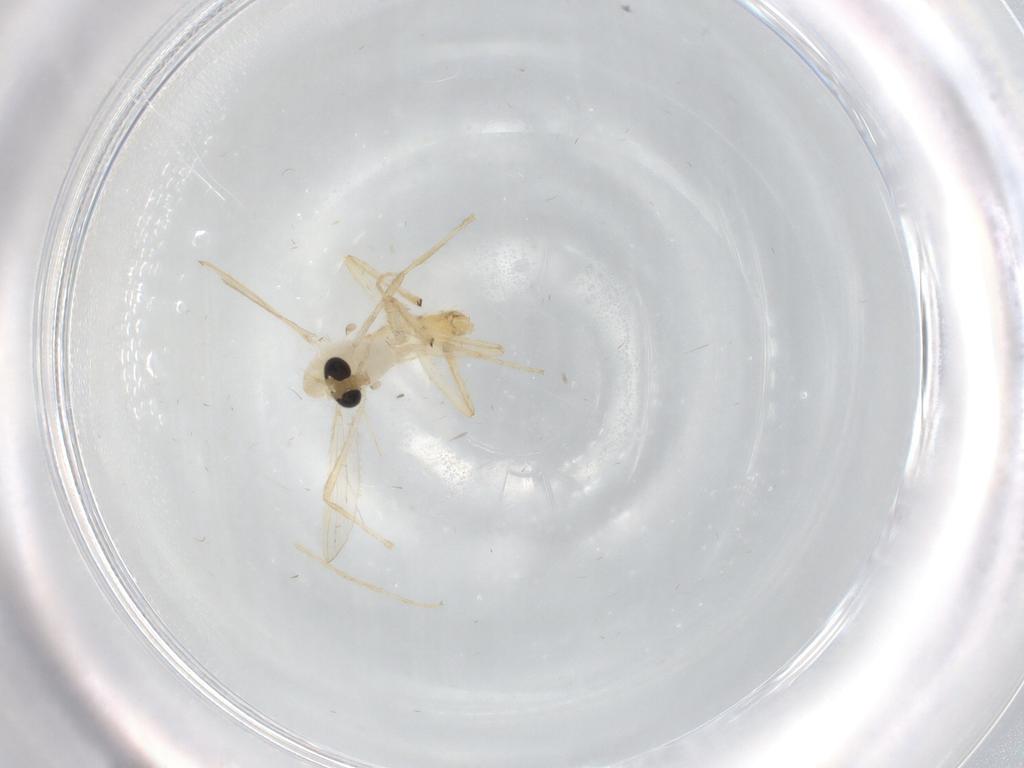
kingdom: Animalia
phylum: Arthropoda
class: Insecta
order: Diptera
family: Chironomidae
